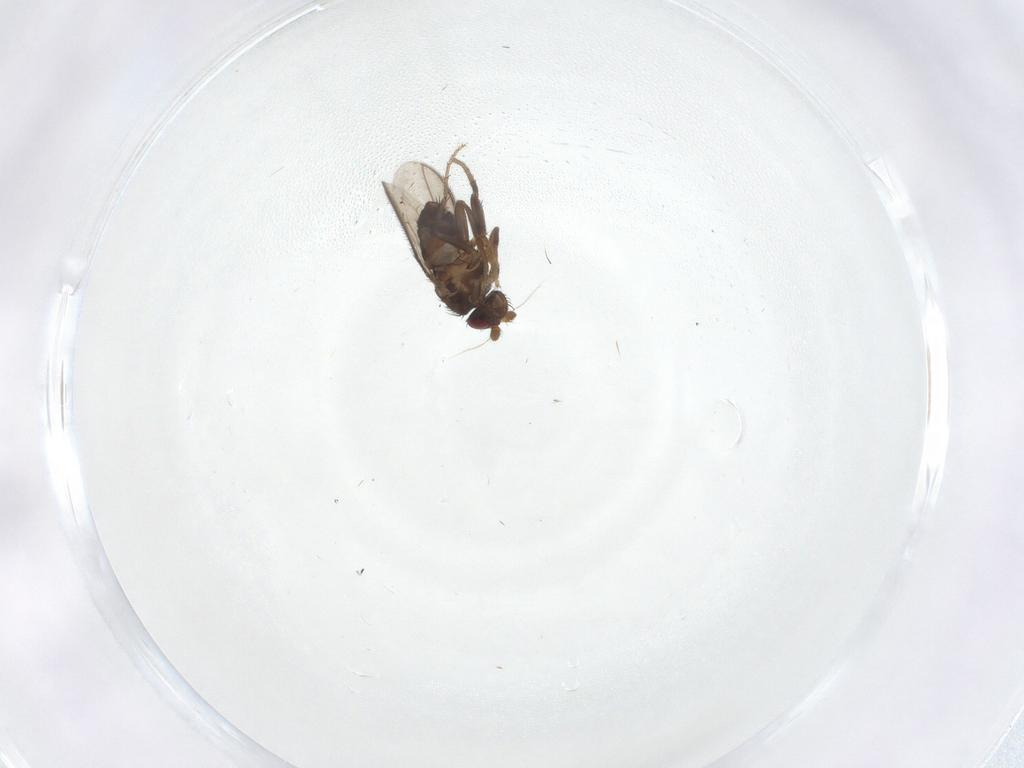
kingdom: Animalia
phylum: Arthropoda
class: Insecta
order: Diptera
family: Sphaeroceridae
